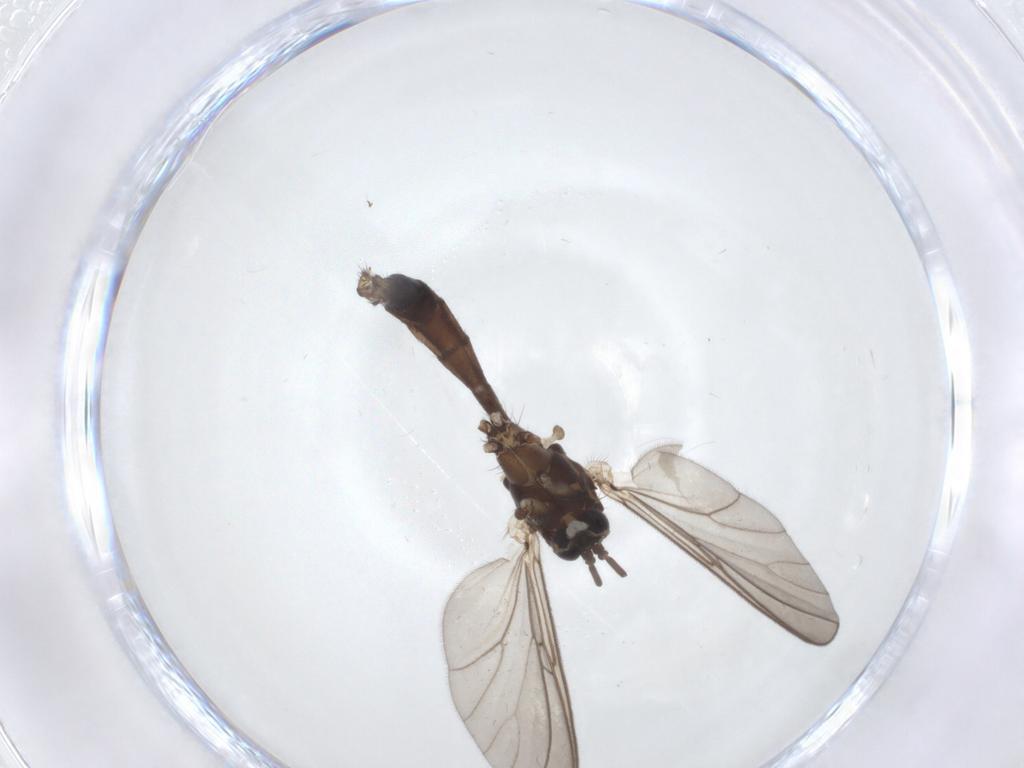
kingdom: Animalia
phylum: Arthropoda
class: Insecta
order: Diptera
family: Mycetophilidae
